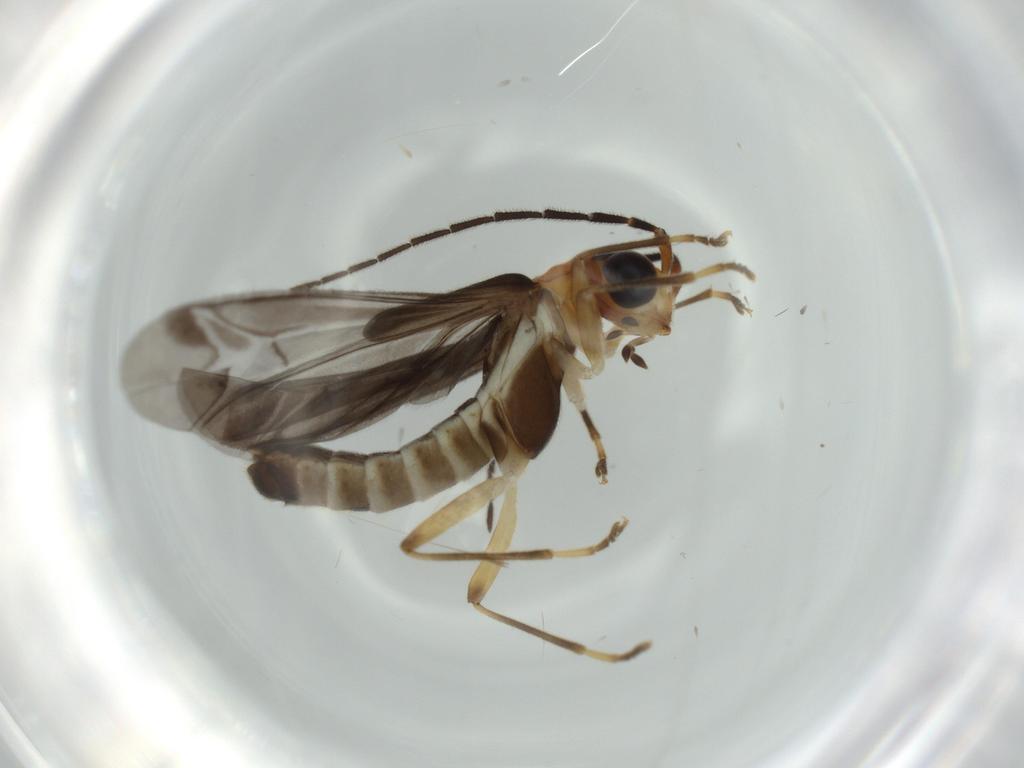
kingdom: Animalia
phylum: Arthropoda
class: Insecta
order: Coleoptera
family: Cantharidae
